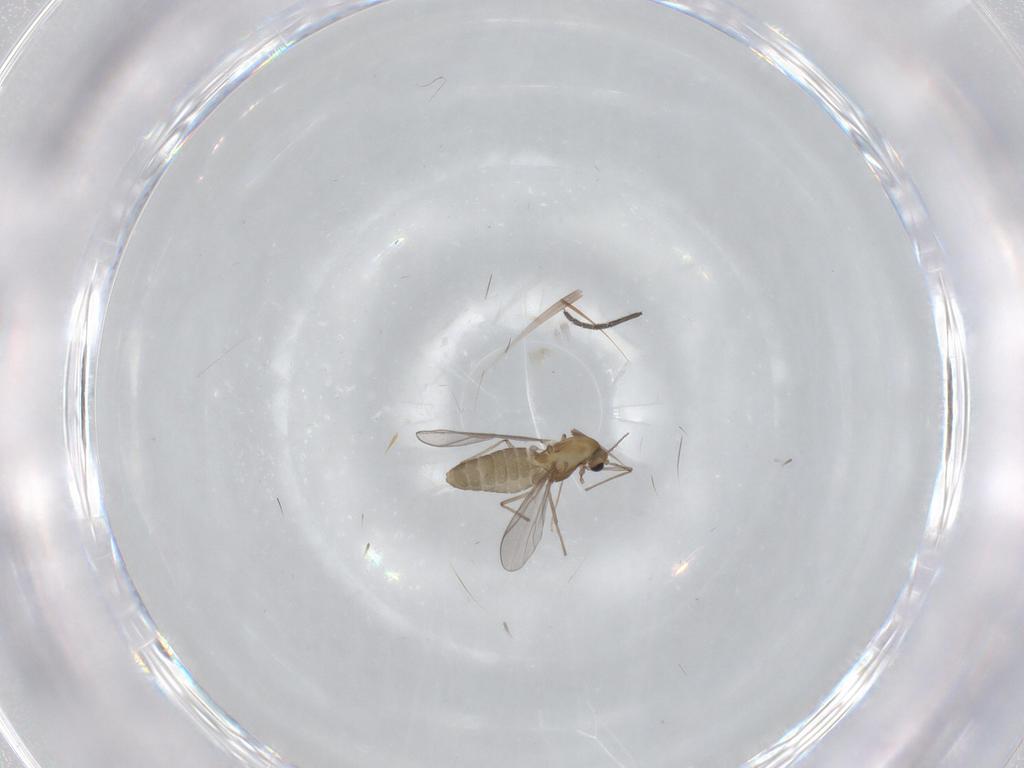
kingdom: Animalia
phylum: Arthropoda
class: Insecta
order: Diptera
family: Chironomidae
